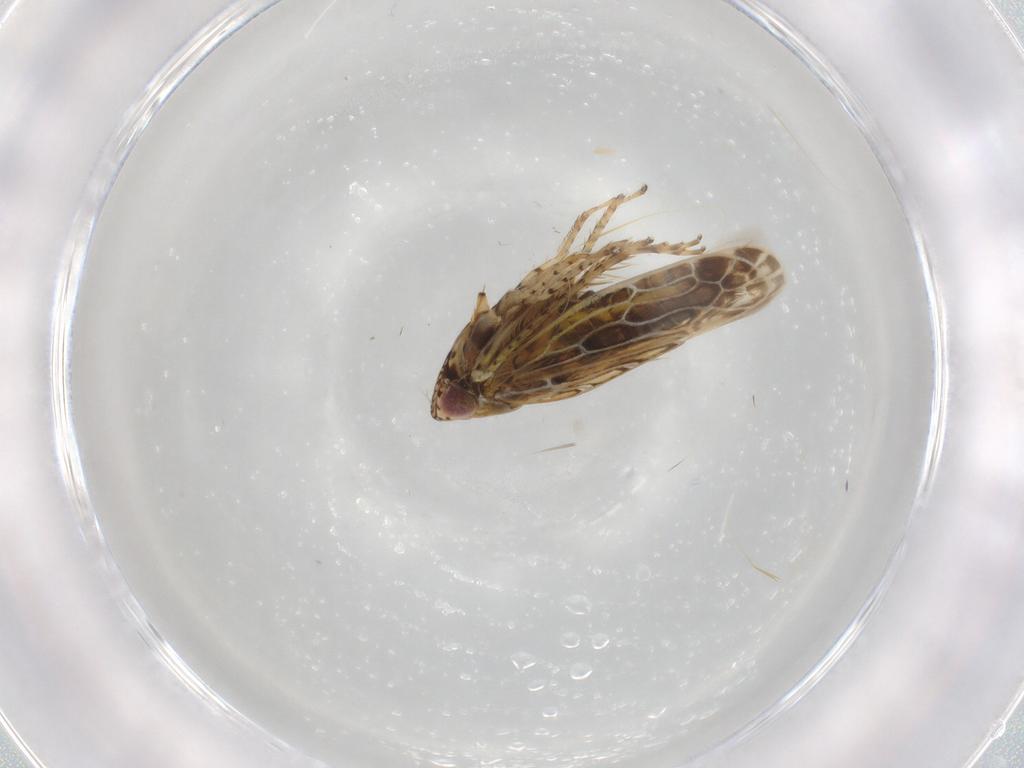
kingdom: Animalia
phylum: Arthropoda
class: Insecta
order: Hemiptera
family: Cicadellidae
